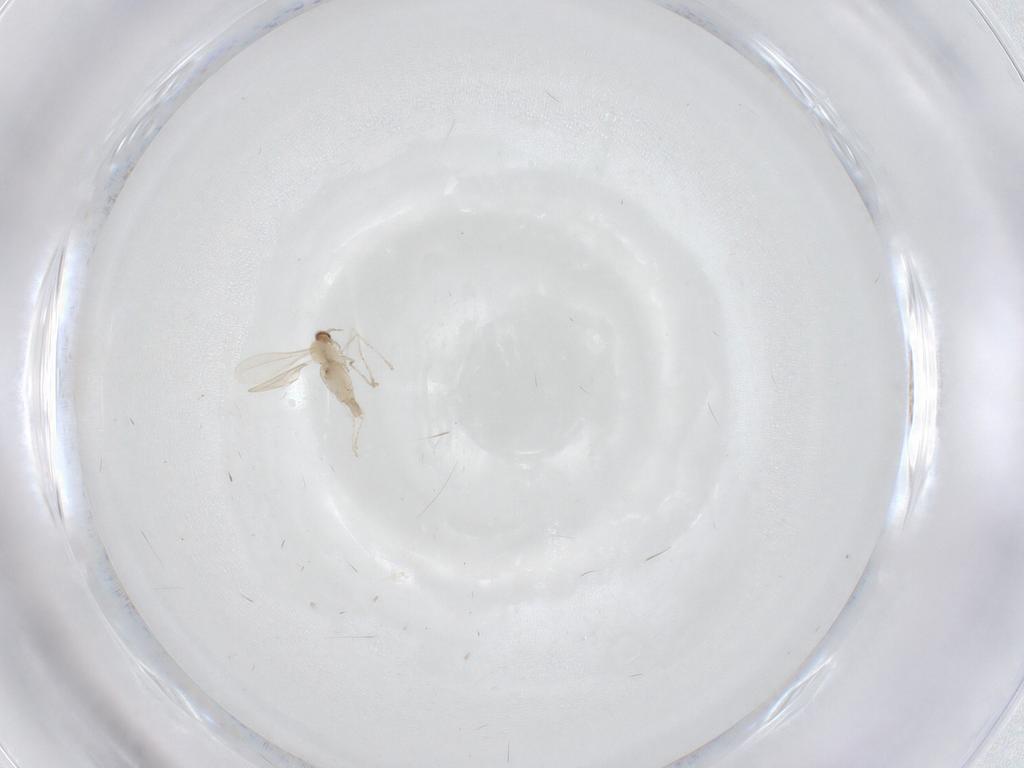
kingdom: Animalia
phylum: Arthropoda
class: Insecta
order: Diptera
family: Cecidomyiidae
